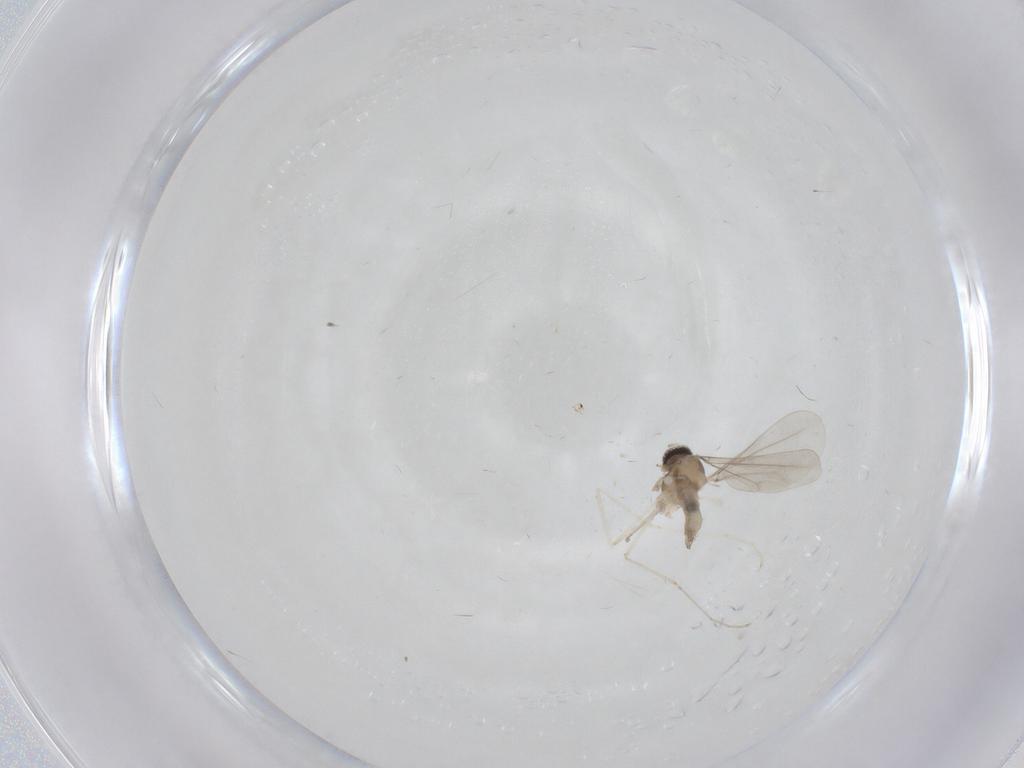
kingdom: Animalia
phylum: Arthropoda
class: Insecta
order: Diptera
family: Cecidomyiidae
